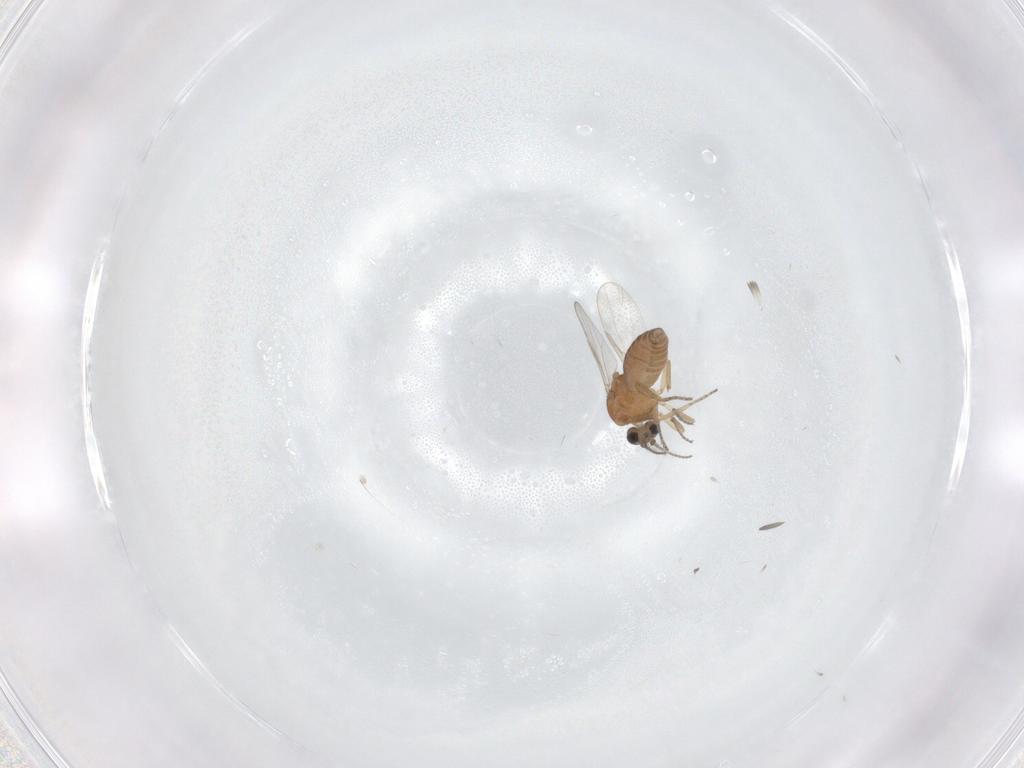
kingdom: Animalia
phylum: Arthropoda
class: Insecta
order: Diptera
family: Ceratopogonidae
